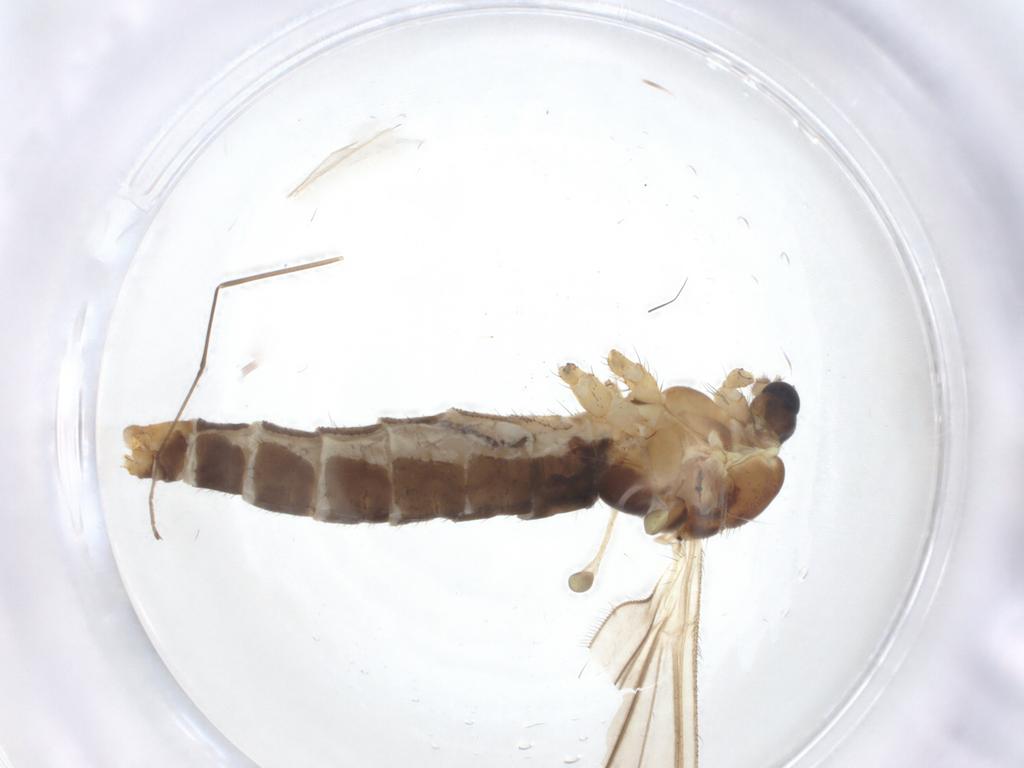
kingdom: Animalia
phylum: Arthropoda
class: Insecta
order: Diptera
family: Limoniidae
